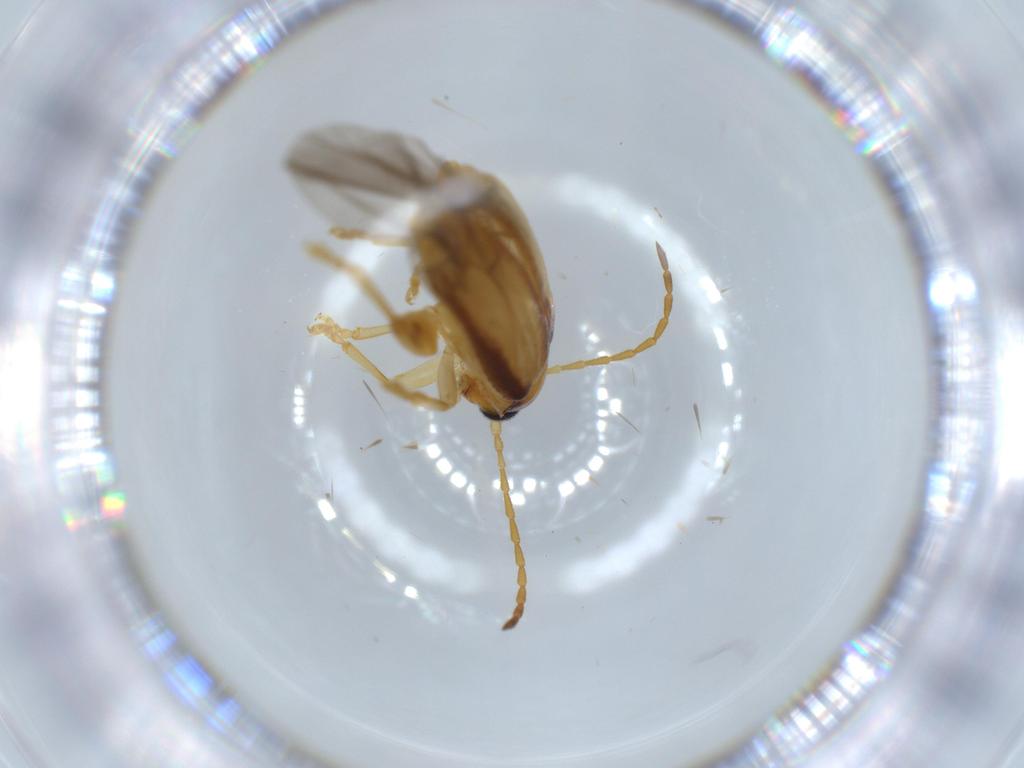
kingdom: Animalia
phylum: Arthropoda
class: Insecta
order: Coleoptera
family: Chrysomelidae
